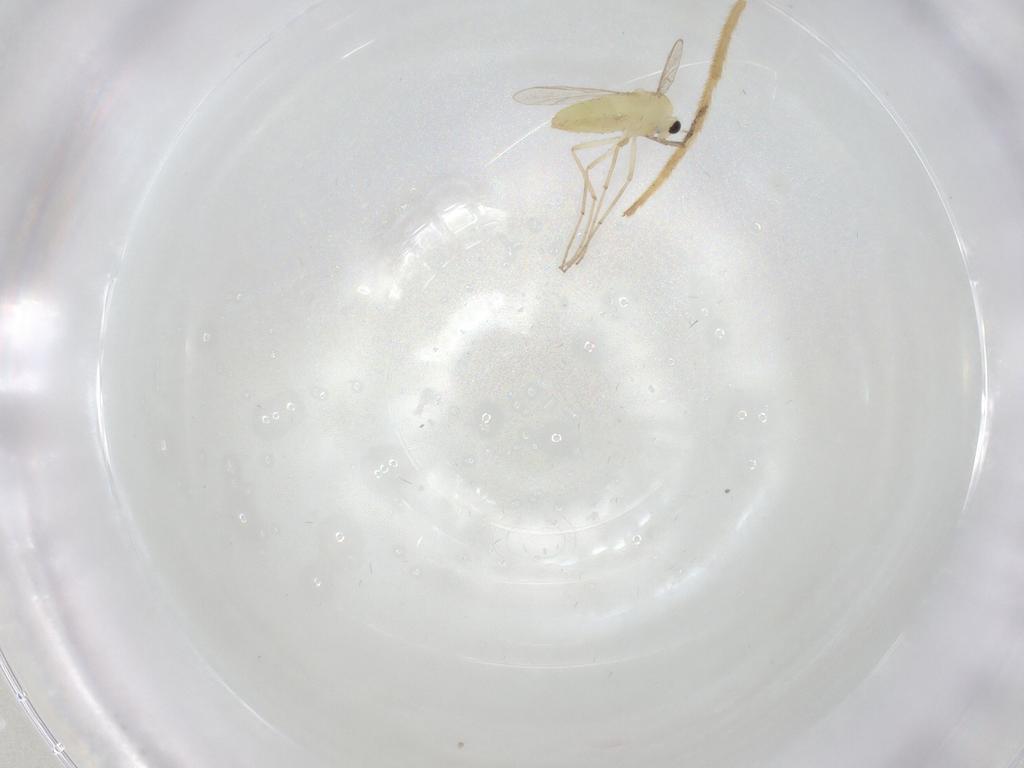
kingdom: Animalia
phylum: Arthropoda
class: Insecta
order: Diptera
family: Chironomidae
